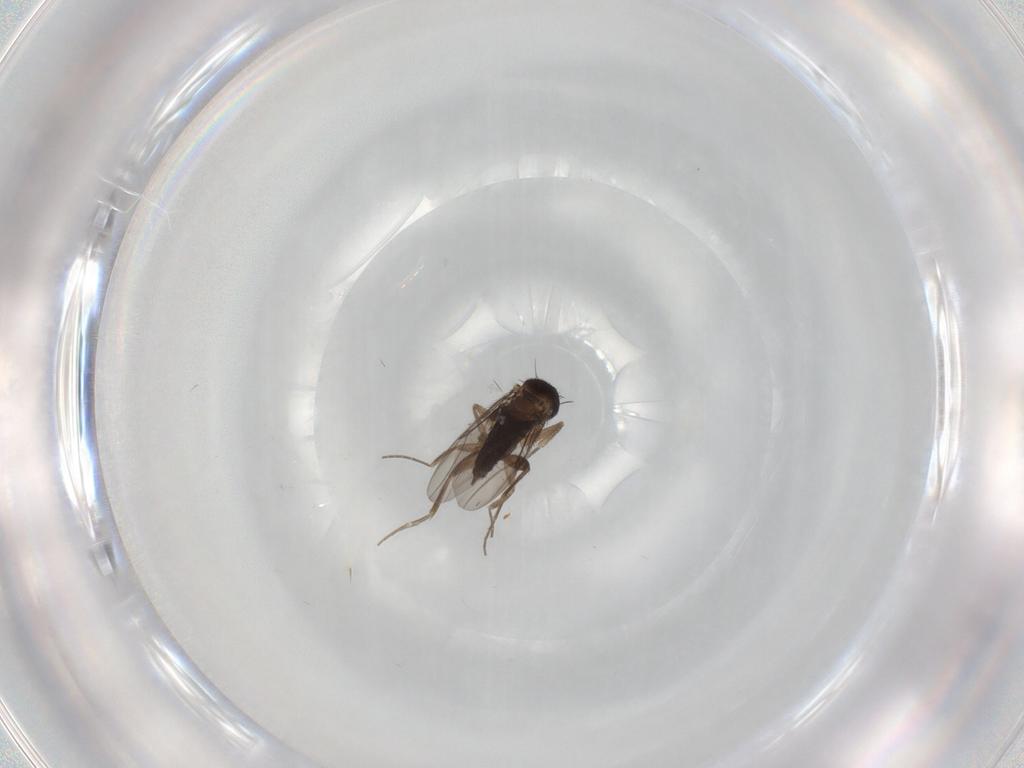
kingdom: Animalia
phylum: Arthropoda
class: Insecta
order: Diptera
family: Phoridae
